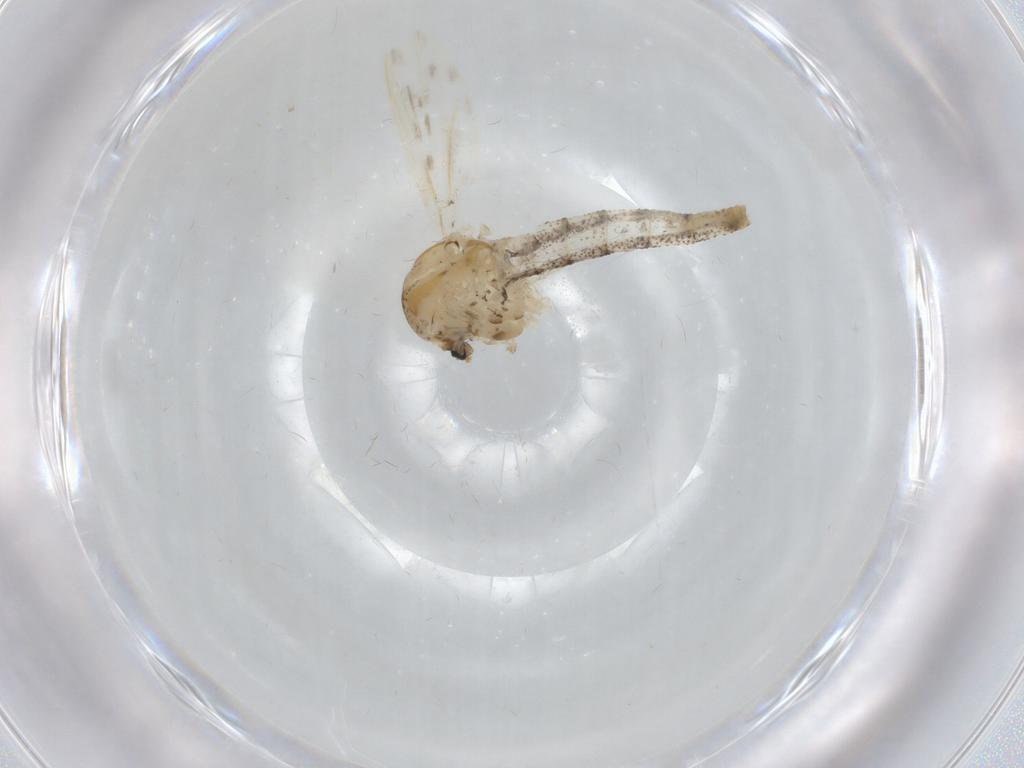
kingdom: Animalia
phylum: Arthropoda
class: Insecta
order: Diptera
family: Chaoboridae
